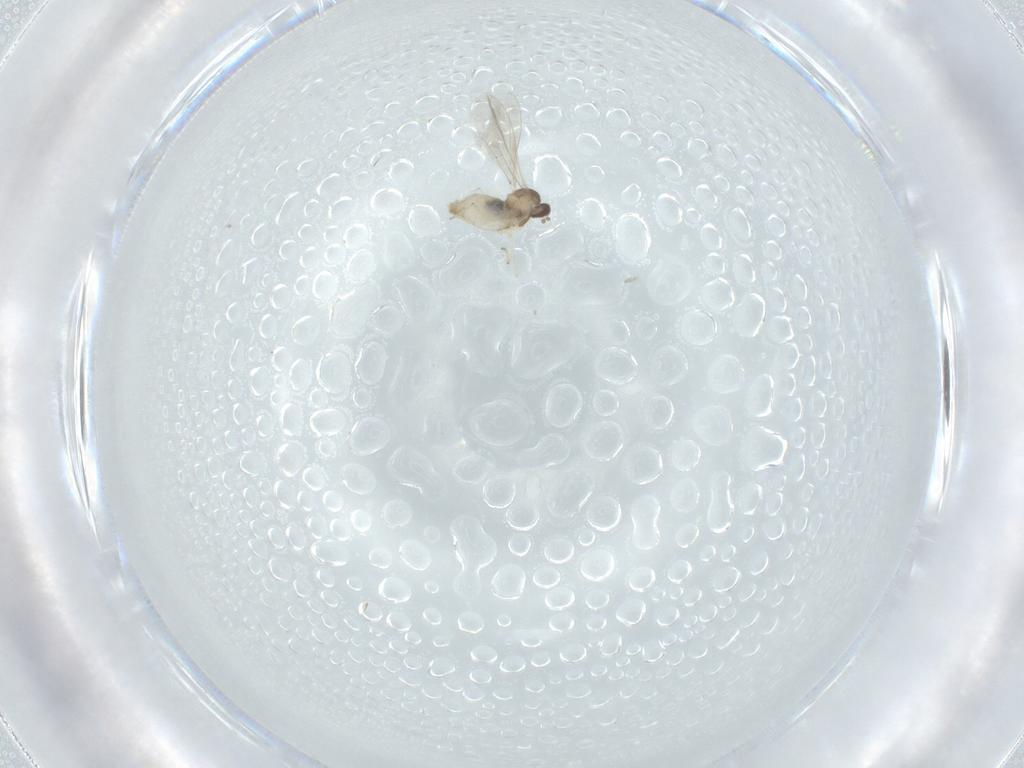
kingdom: Animalia
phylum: Arthropoda
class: Insecta
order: Diptera
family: Cecidomyiidae
